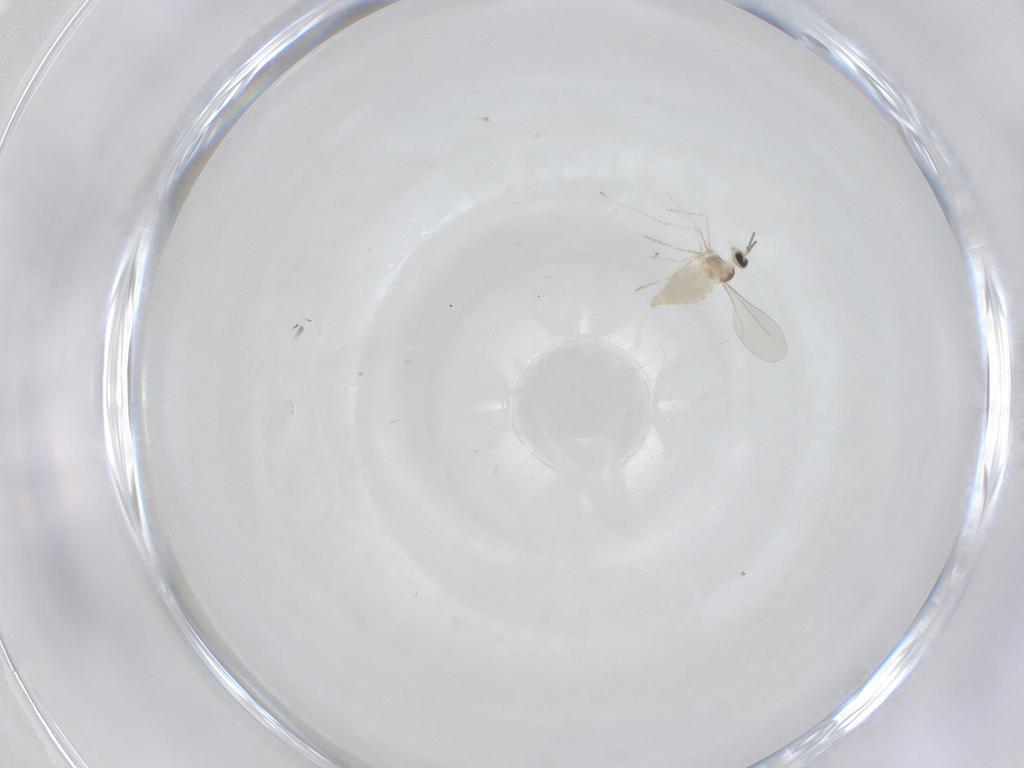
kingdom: Animalia
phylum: Arthropoda
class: Insecta
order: Diptera
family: Cecidomyiidae
